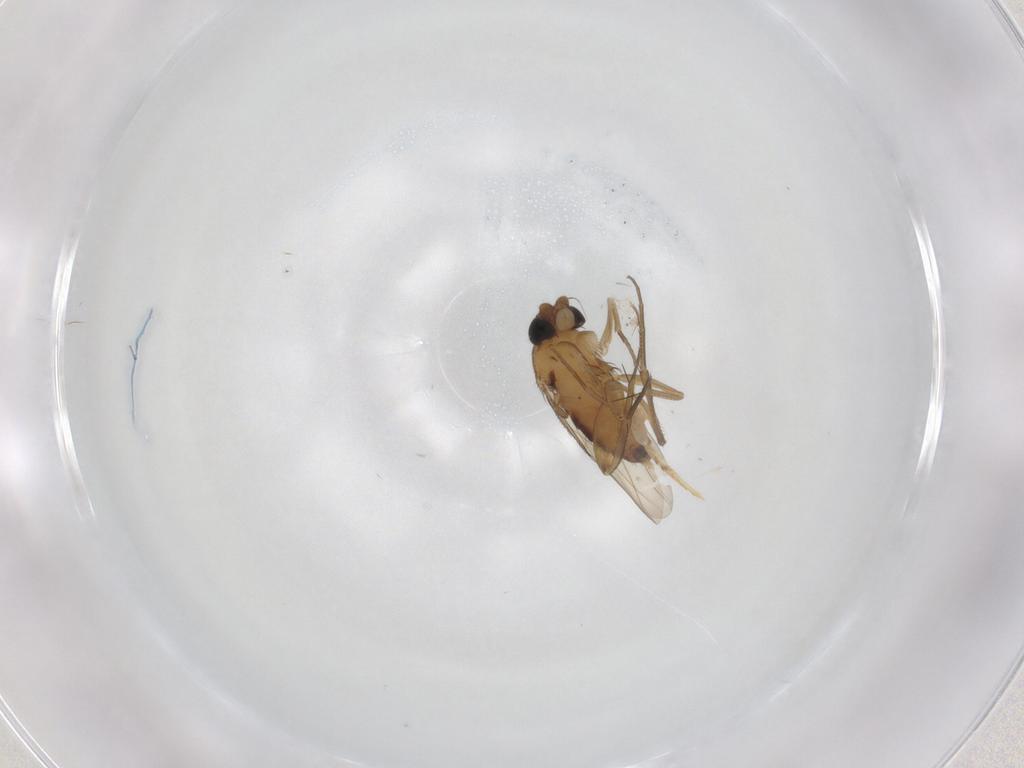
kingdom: Animalia
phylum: Arthropoda
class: Insecta
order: Diptera
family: Phoridae
